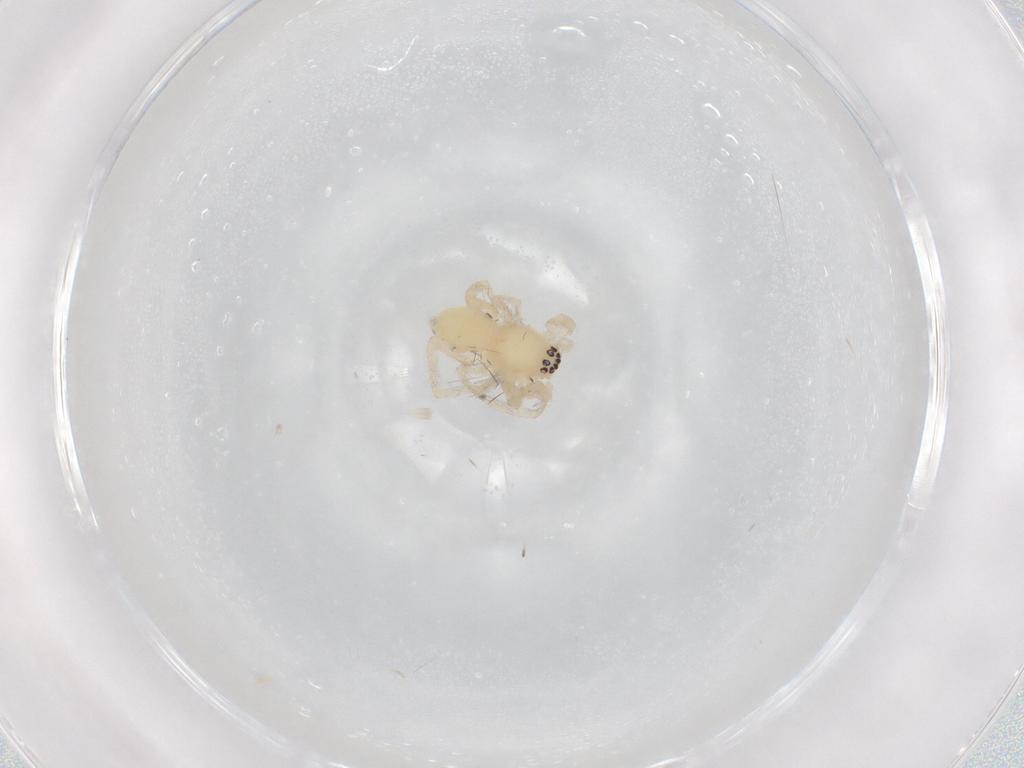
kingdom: Animalia
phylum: Arthropoda
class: Arachnida
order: Araneae
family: Anyphaenidae
